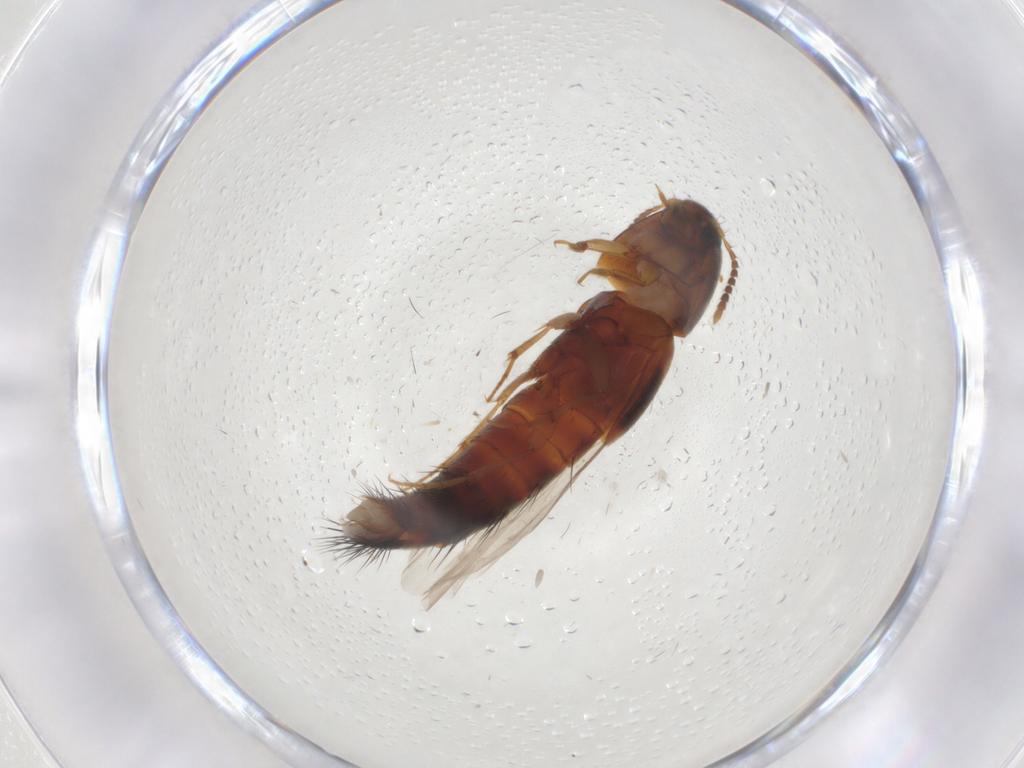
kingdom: Animalia
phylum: Arthropoda
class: Insecta
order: Coleoptera
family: Staphylinidae
